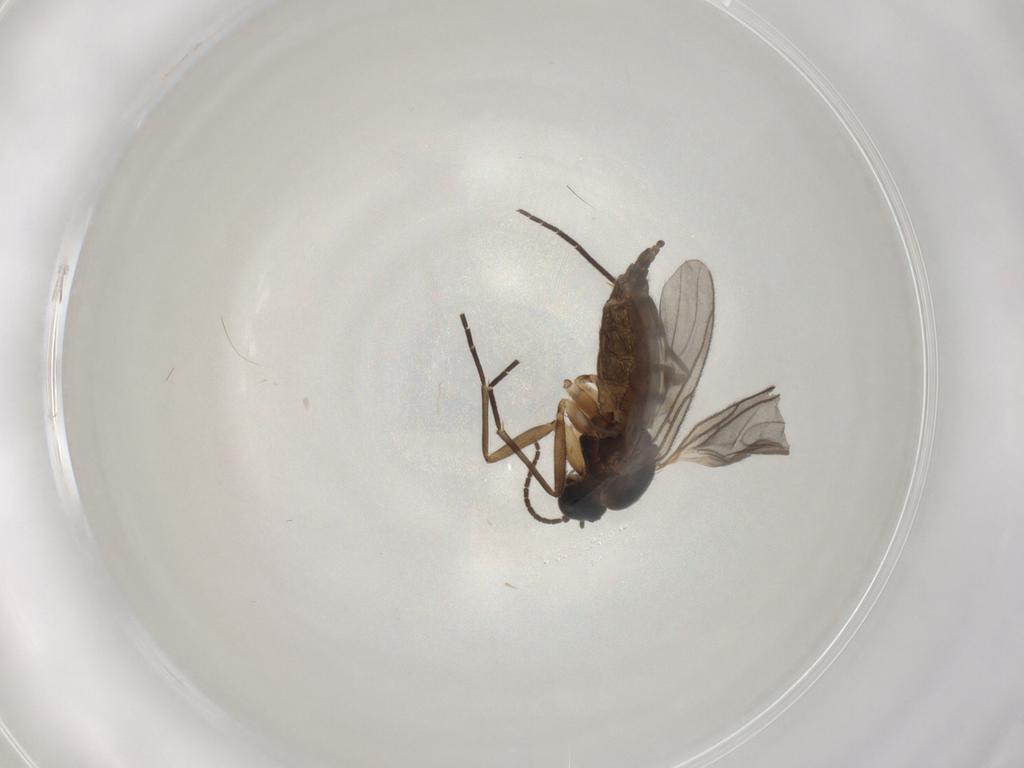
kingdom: Animalia
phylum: Arthropoda
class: Insecta
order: Diptera
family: Sciaridae
